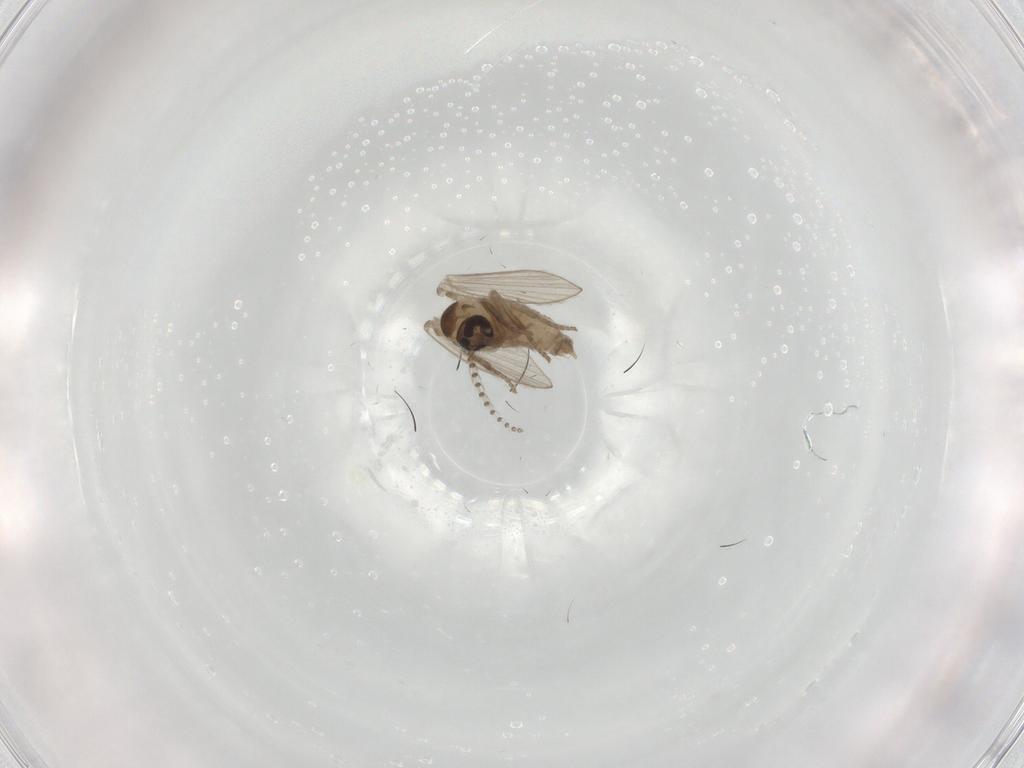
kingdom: Animalia
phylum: Arthropoda
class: Insecta
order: Diptera
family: Psychodidae
